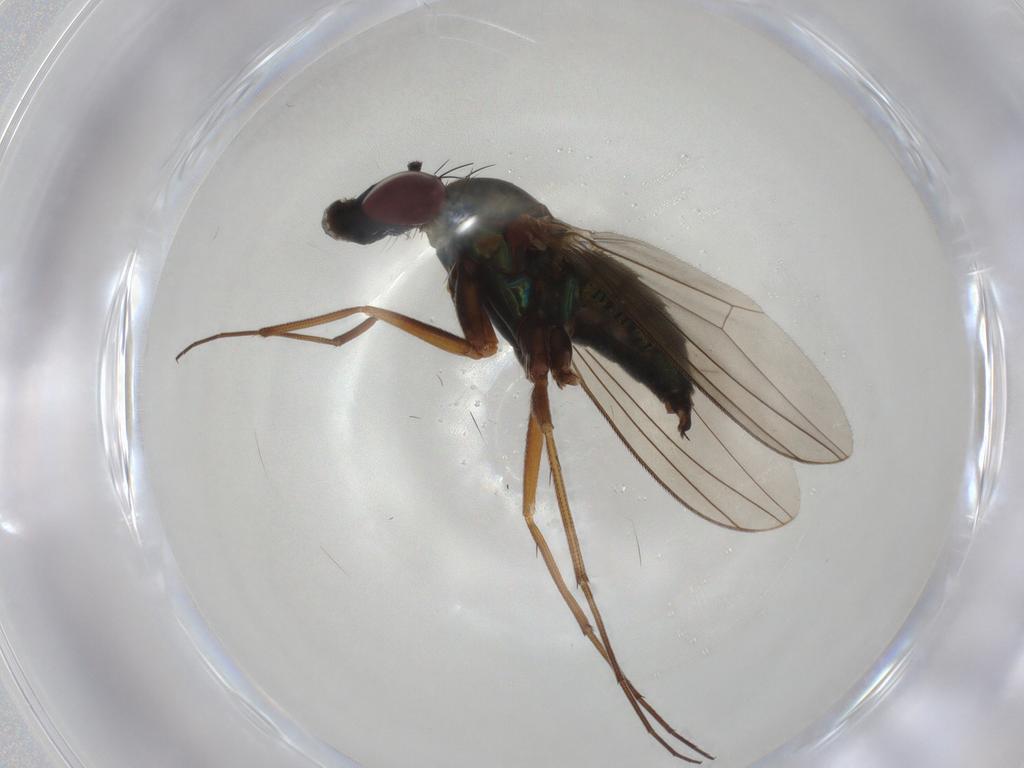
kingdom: Animalia
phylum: Arthropoda
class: Insecta
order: Diptera
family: Dolichopodidae
